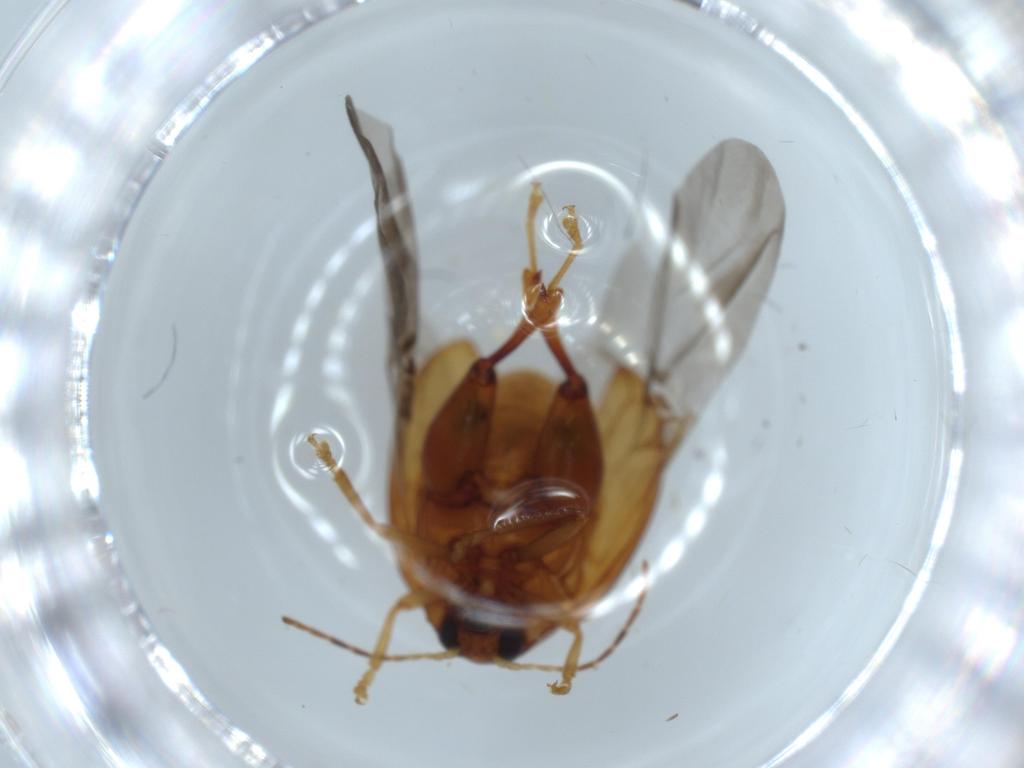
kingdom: Animalia
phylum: Arthropoda
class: Insecta
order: Coleoptera
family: Chrysomelidae
